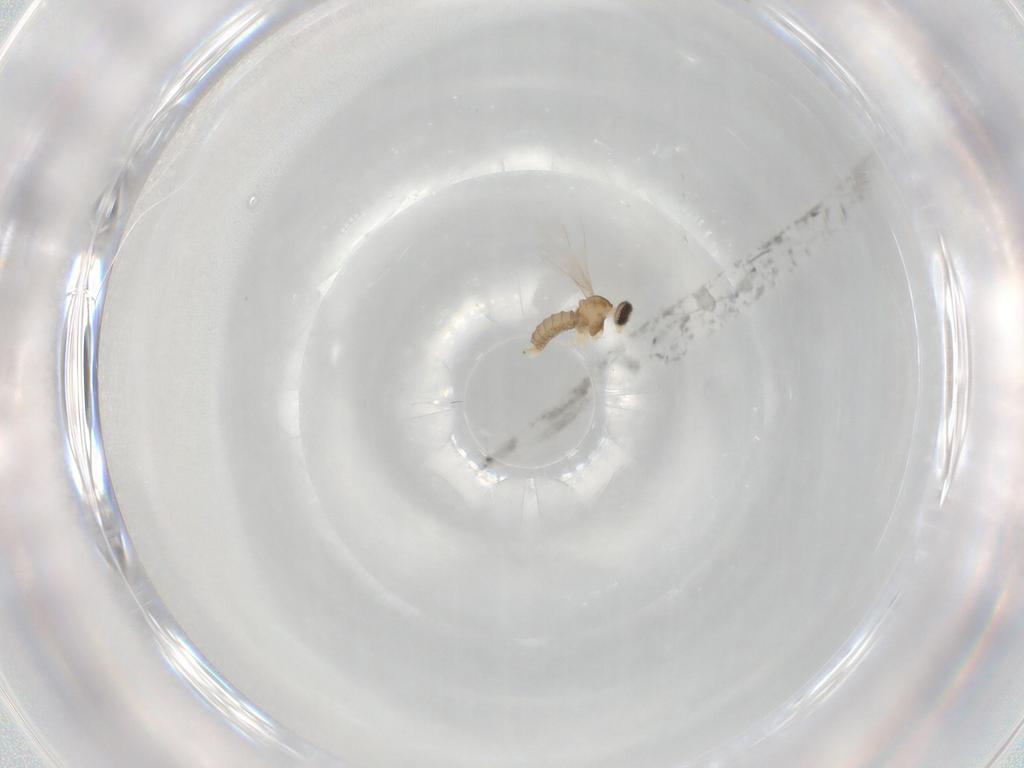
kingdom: Animalia
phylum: Arthropoda
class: Insecta
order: Diptera
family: Cecidomyiidae
